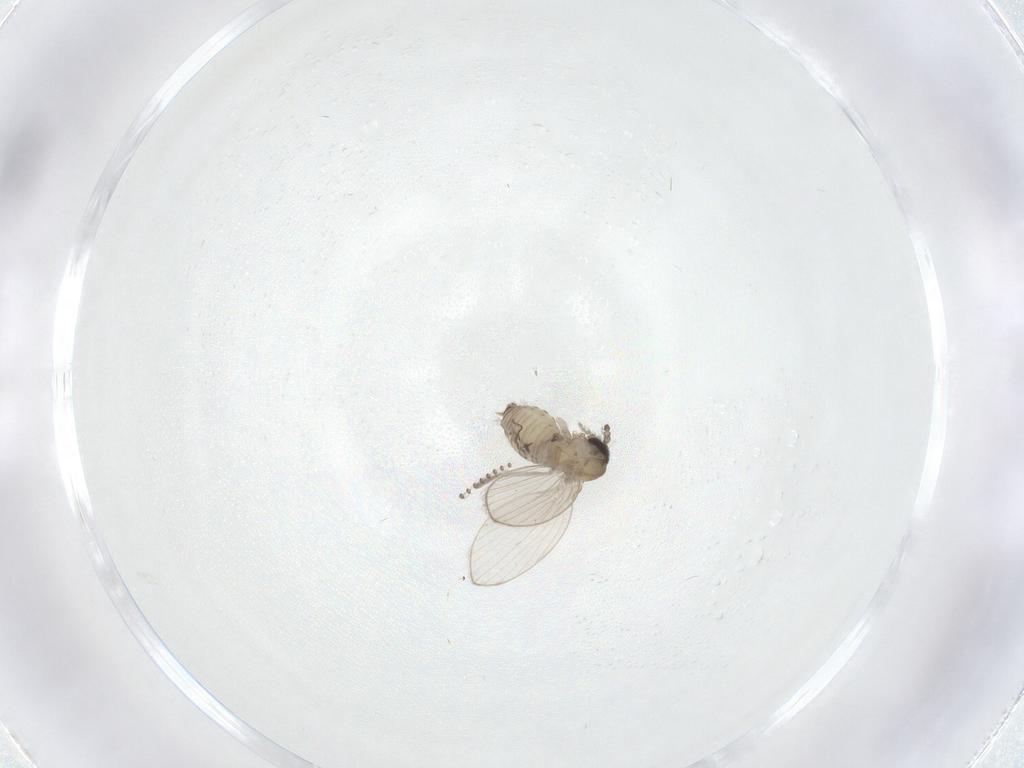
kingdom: Animalia
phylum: Arthropoda
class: Insecta
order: Diptera
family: Psychodidae
